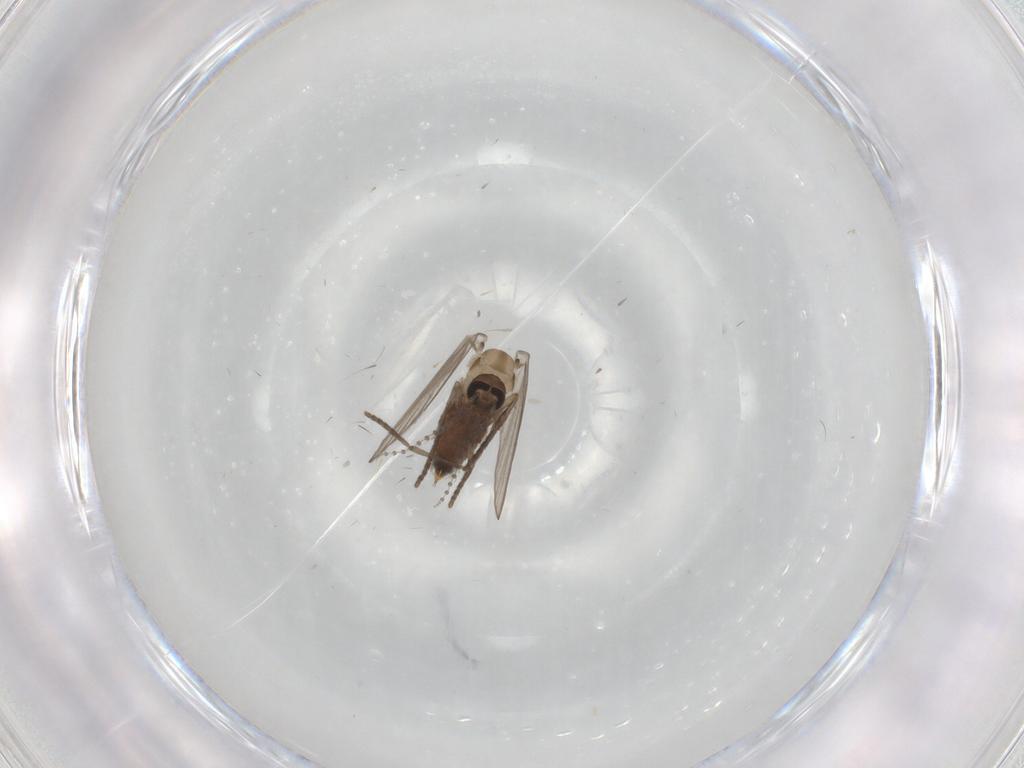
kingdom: Animalia
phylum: Arthropoda
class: Insecta
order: Diptera
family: Psychodidae
